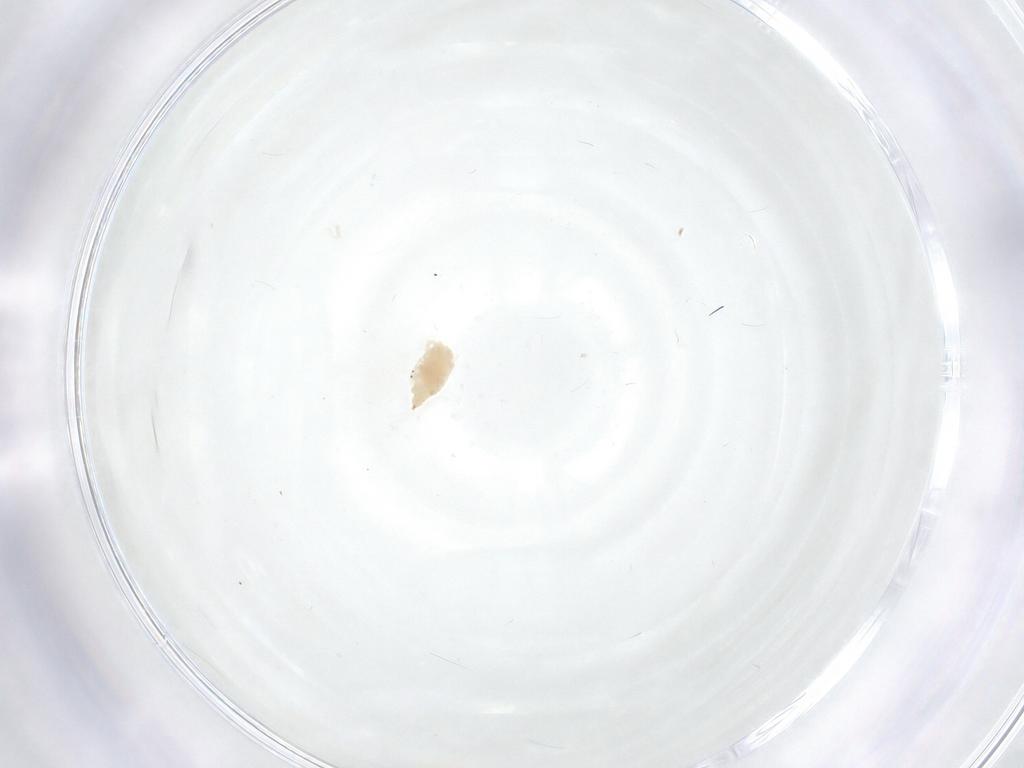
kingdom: Animalia
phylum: Arthropoda
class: Arachnida
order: Trombidiformes
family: Bdellidae
